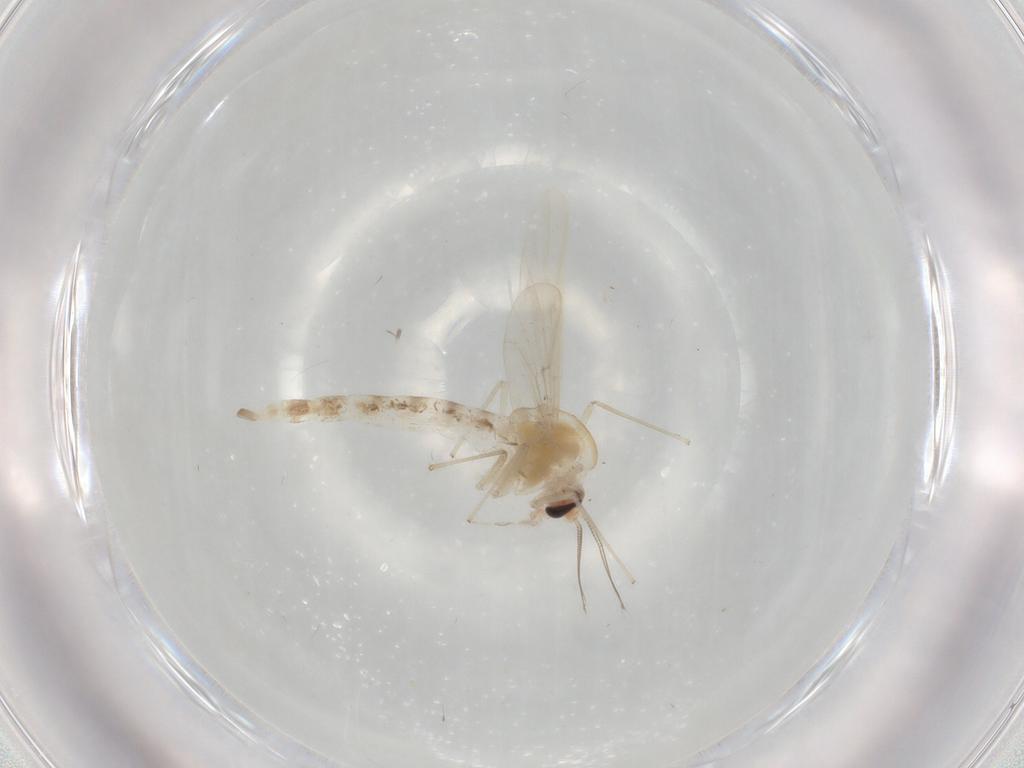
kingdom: Animalia
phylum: Arthropoda
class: Insecta
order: Diptera
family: Chironomidae
